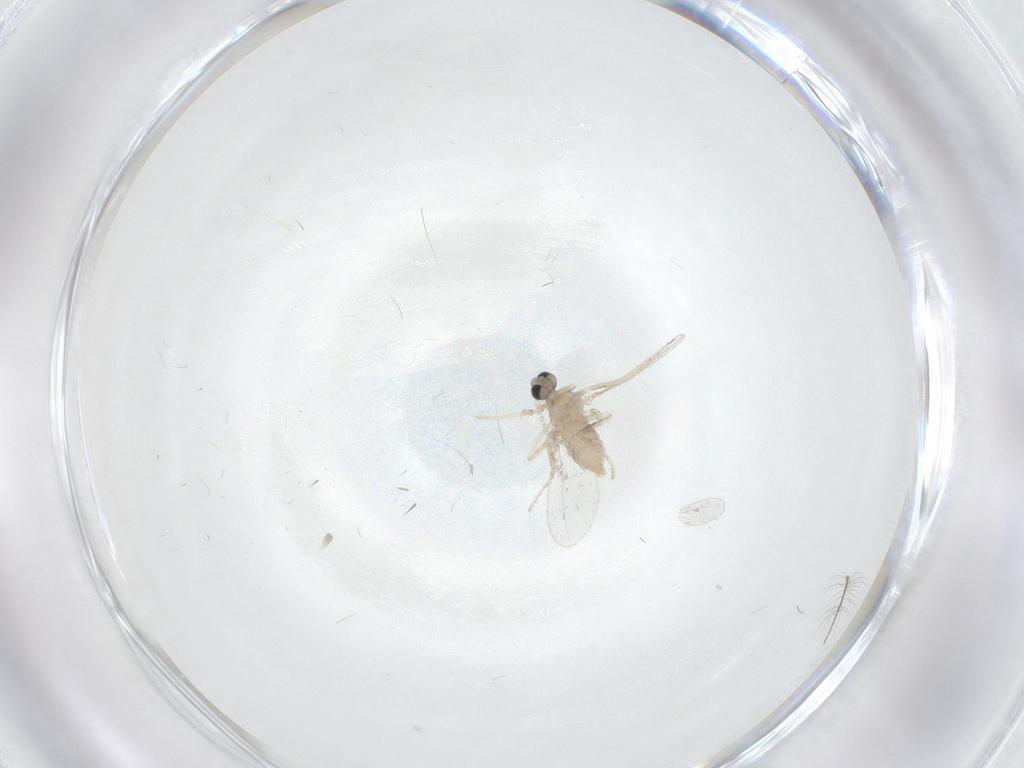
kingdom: Animalia
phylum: Arthropoda
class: Insecta
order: Diptera
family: Cecidomyiidae
